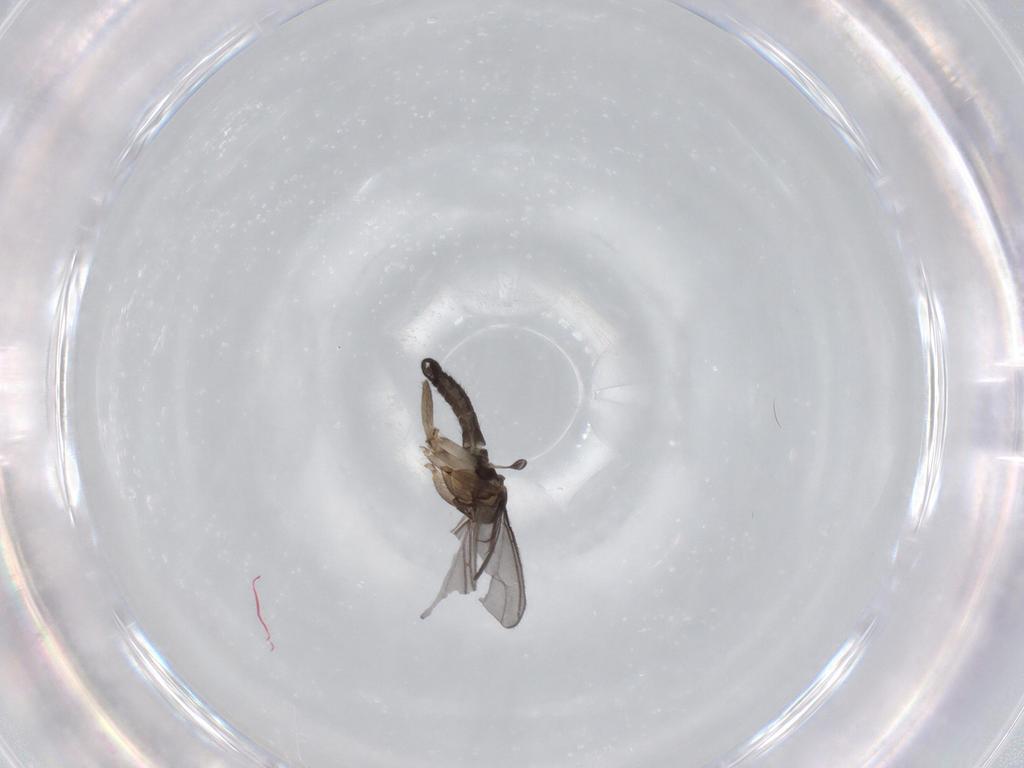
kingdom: Animalia
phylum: Arthropoda
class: Insecta
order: Diptera
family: Sciaridae
